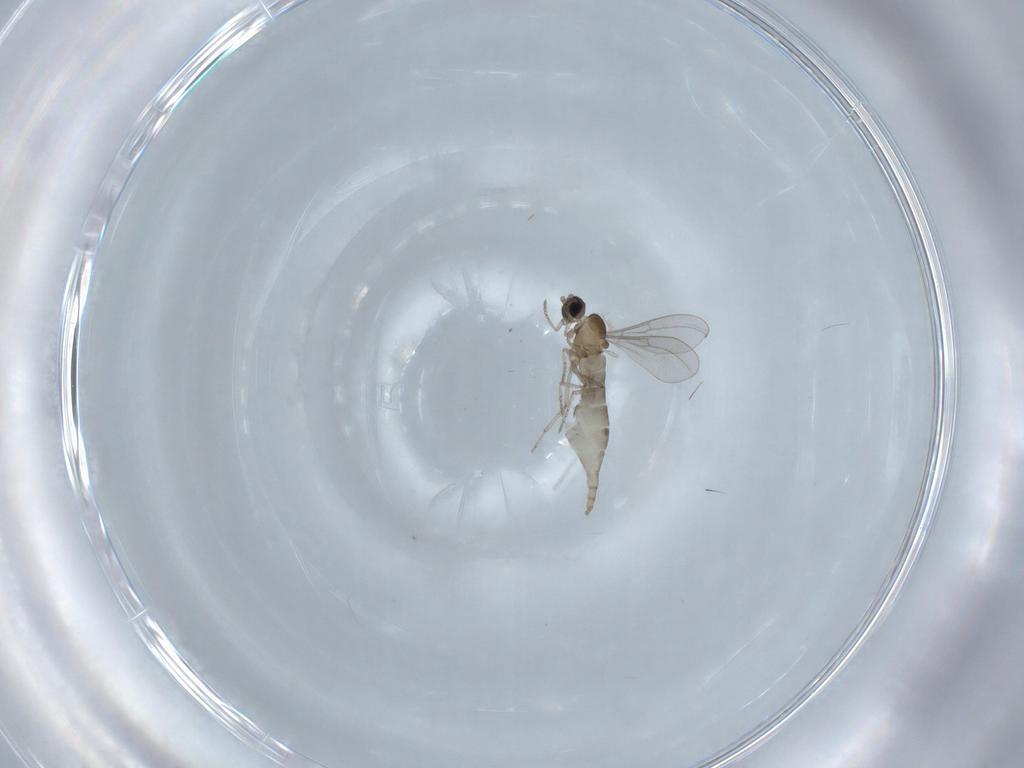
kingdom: Animalia
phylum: Arthropoda
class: Insecta
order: Diptera
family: Cecidomyiidae
